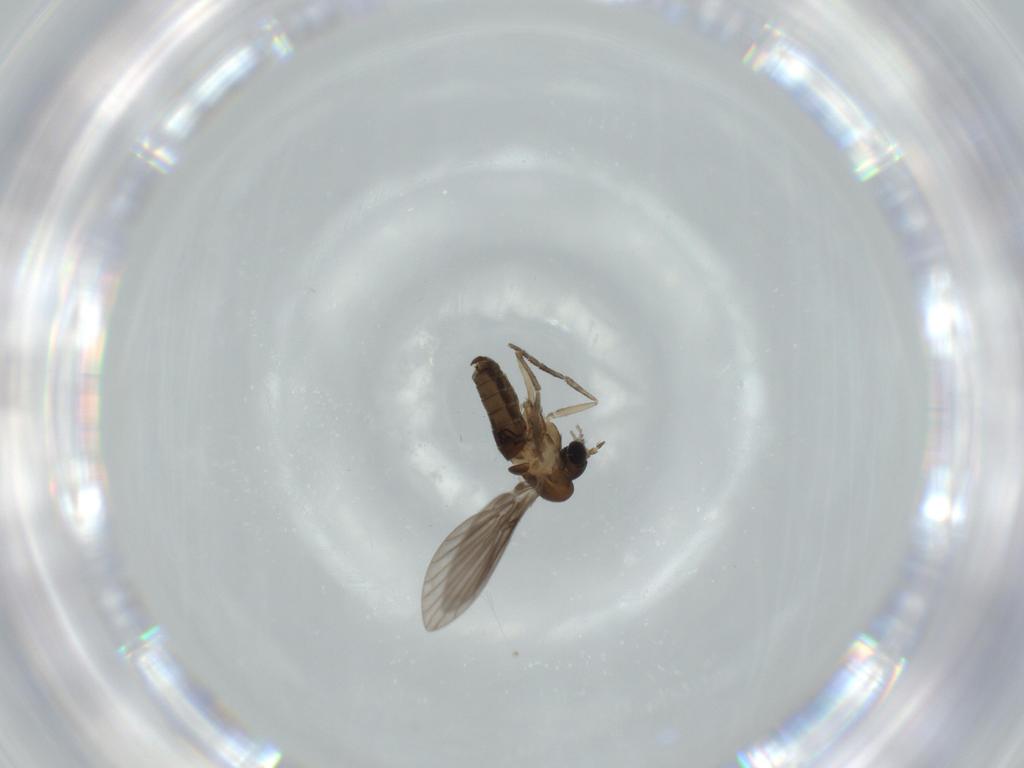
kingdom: Animalia
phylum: Arthropoda
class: Insecta
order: Diptera
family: Psychodidae
